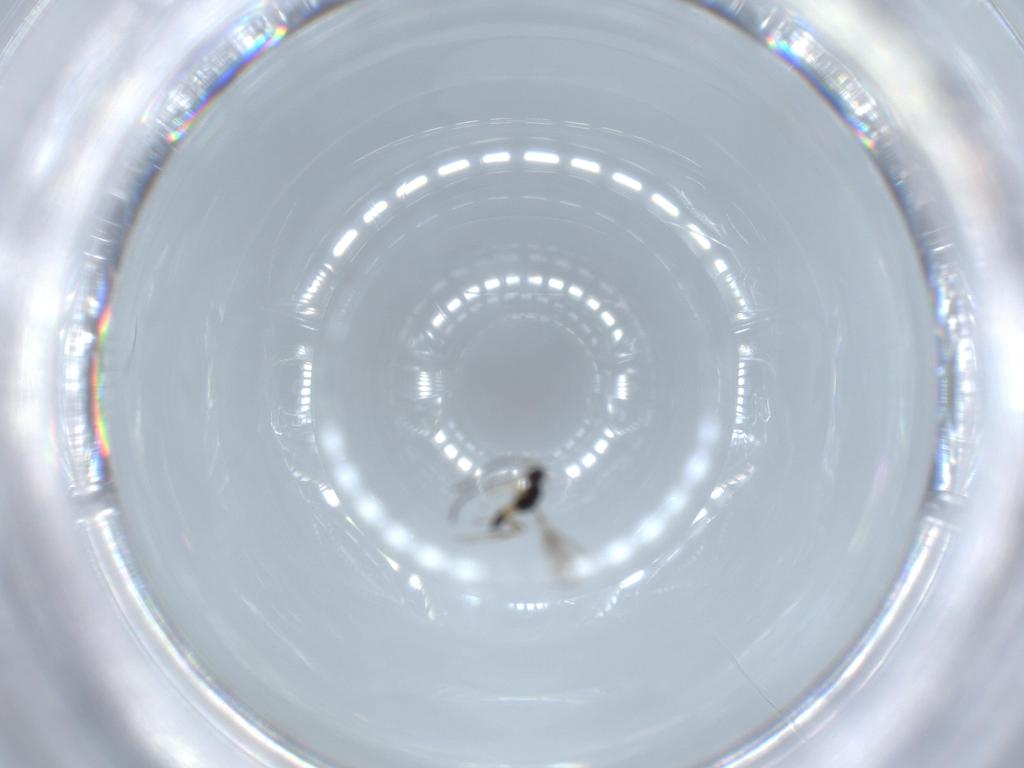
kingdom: Animalia
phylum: Arthropoda
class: Insecta
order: Hymenoptera
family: Mymaridae
